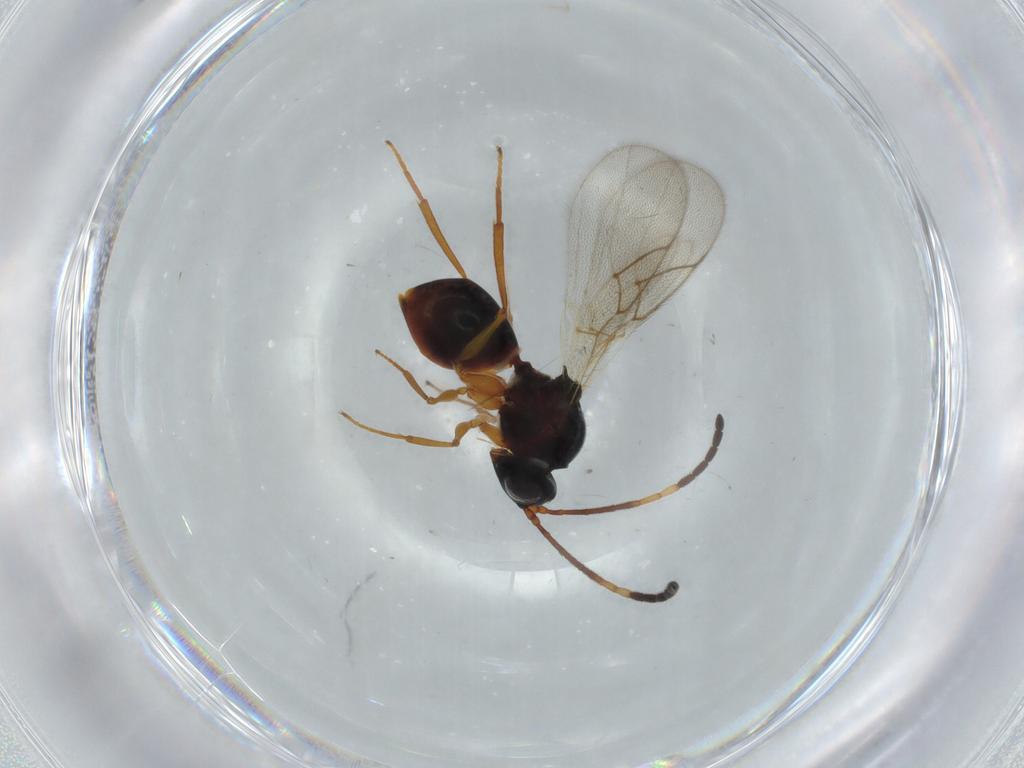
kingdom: Animalia
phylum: Arthropoda
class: Insecta
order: Hymenoptera
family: Figitidae
